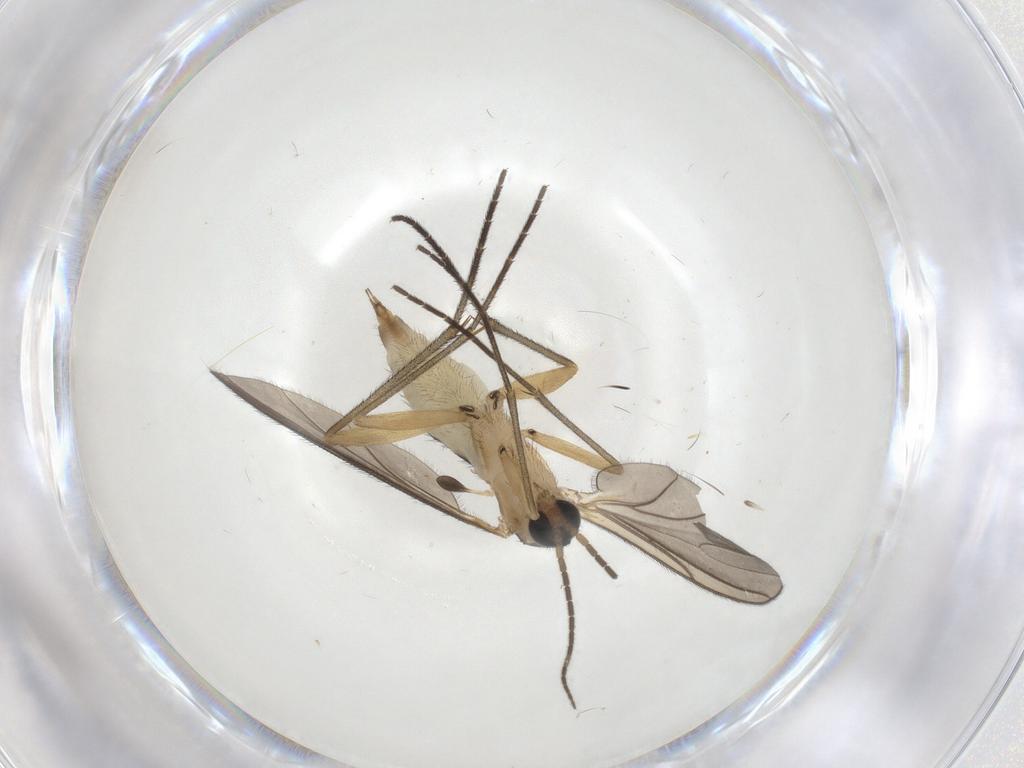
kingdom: Animalia
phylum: Arthropoda
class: Insecta
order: Diptera
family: Sciaridae
